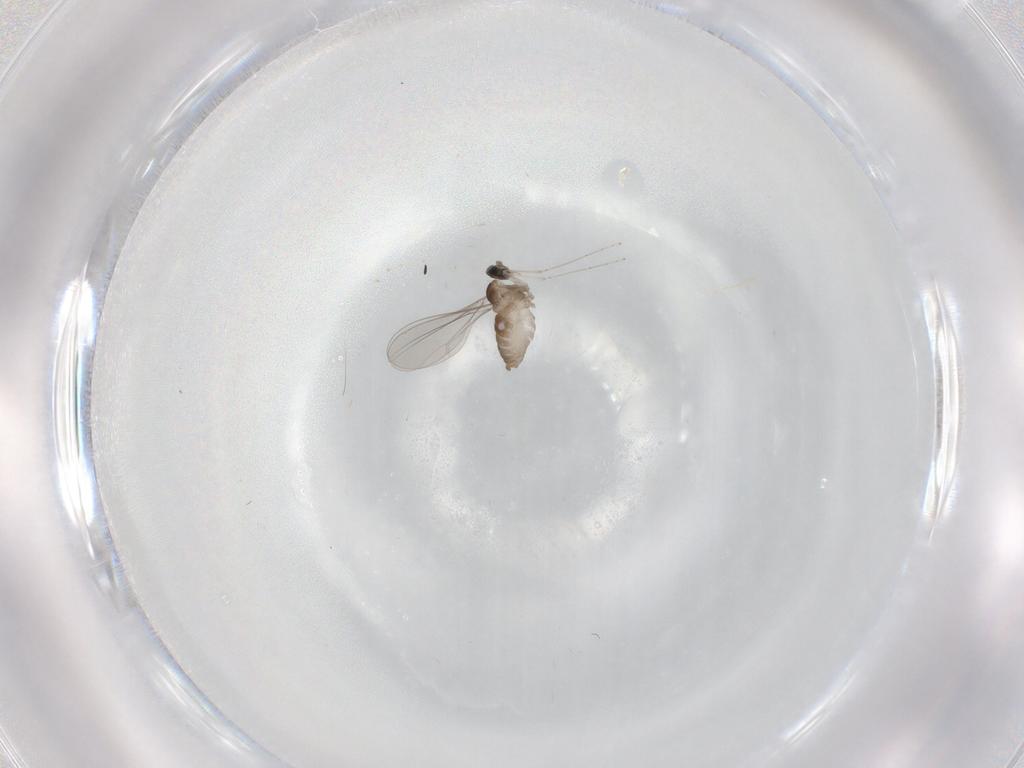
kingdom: Animalia
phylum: Arthropoda
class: Insecta
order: Diptera
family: Cecidomyiidae
